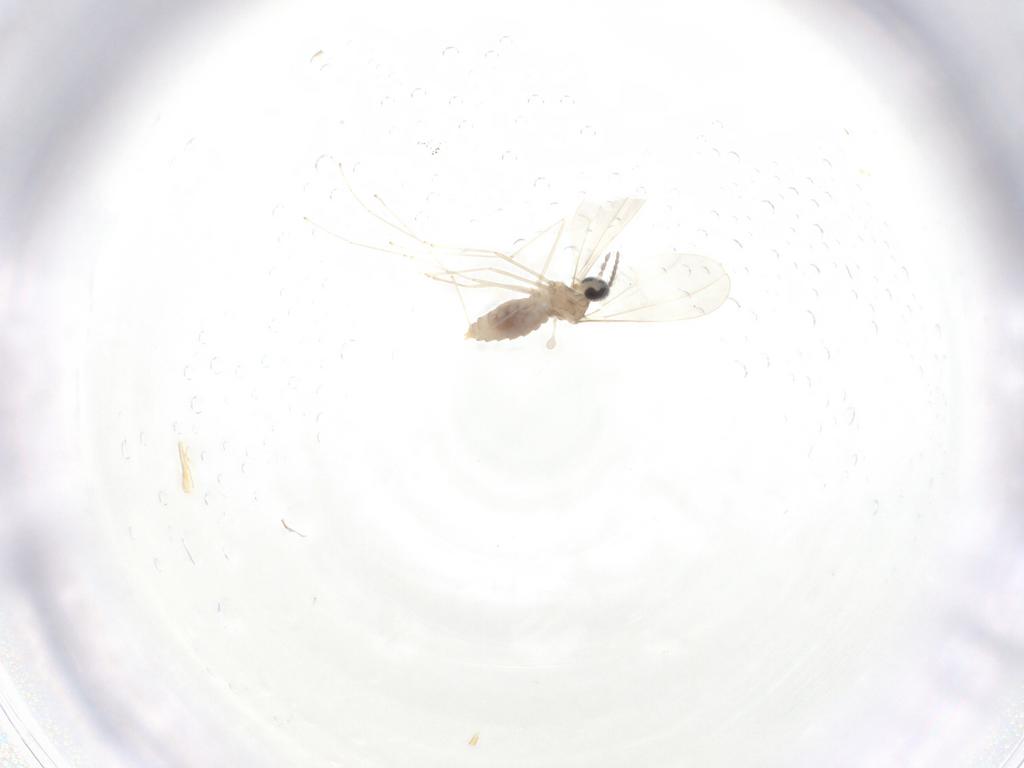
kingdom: Animalia
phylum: Arthropoda
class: Insecta
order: Diptera
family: Cecidomyiidae
